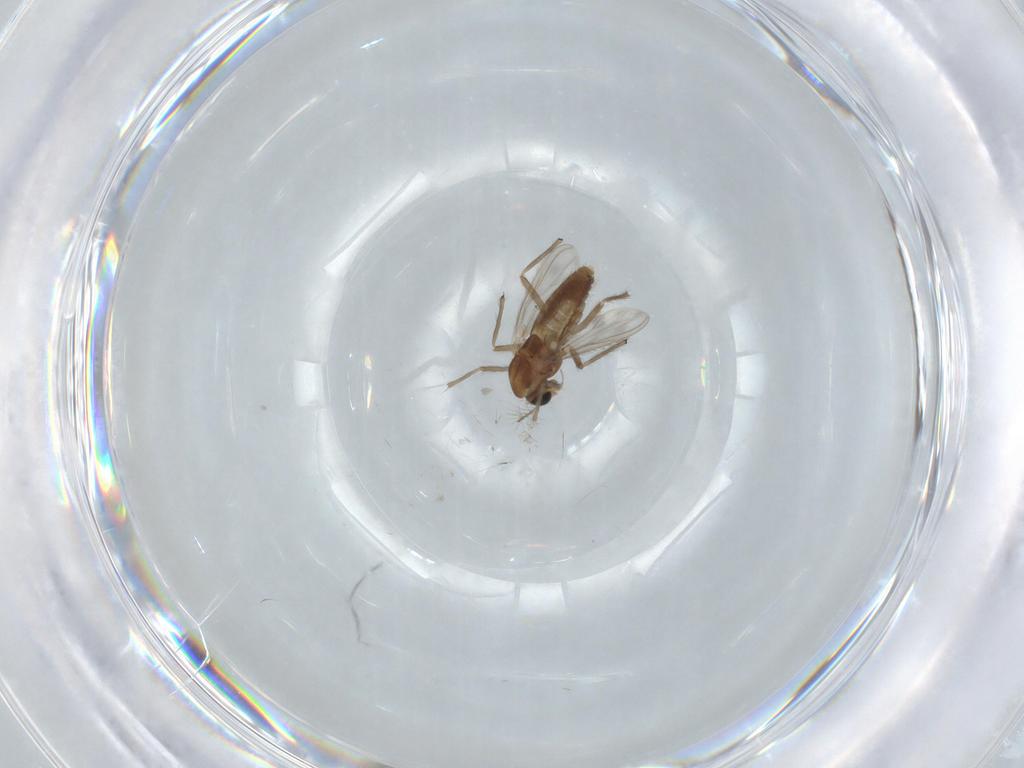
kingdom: Animalia
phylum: Arthropoda
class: Insecta
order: Diptera
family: Chironomidae
